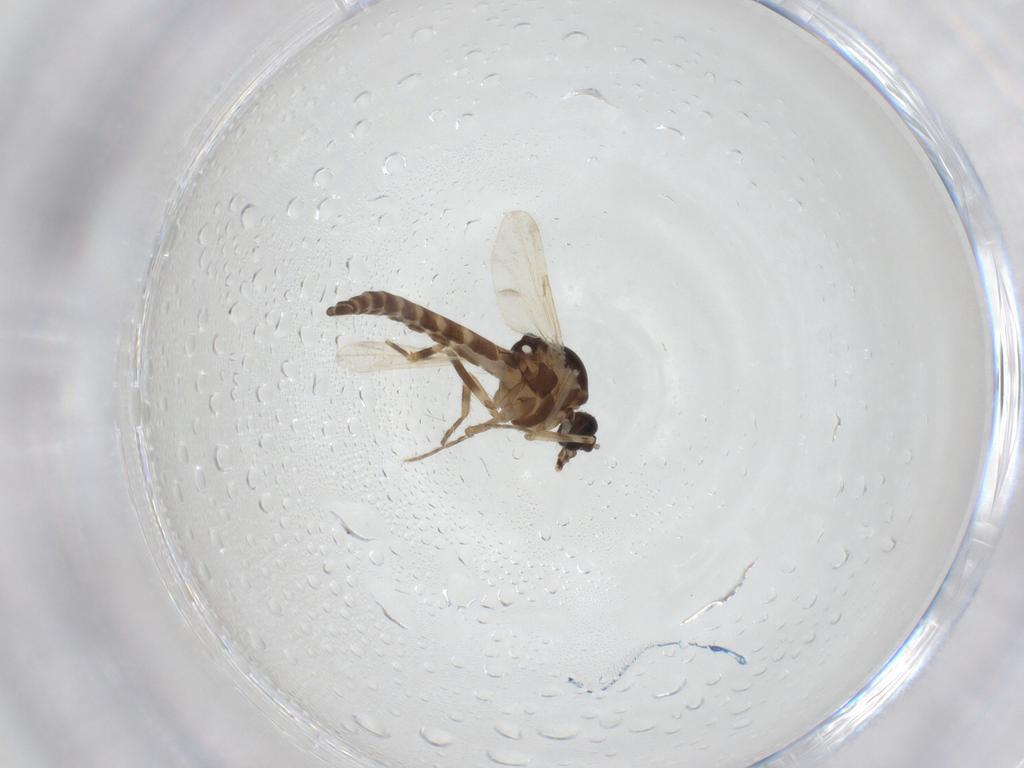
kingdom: Animalia
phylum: Arthropoda
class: Insecta
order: Diptera
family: Ceratopogonidae
